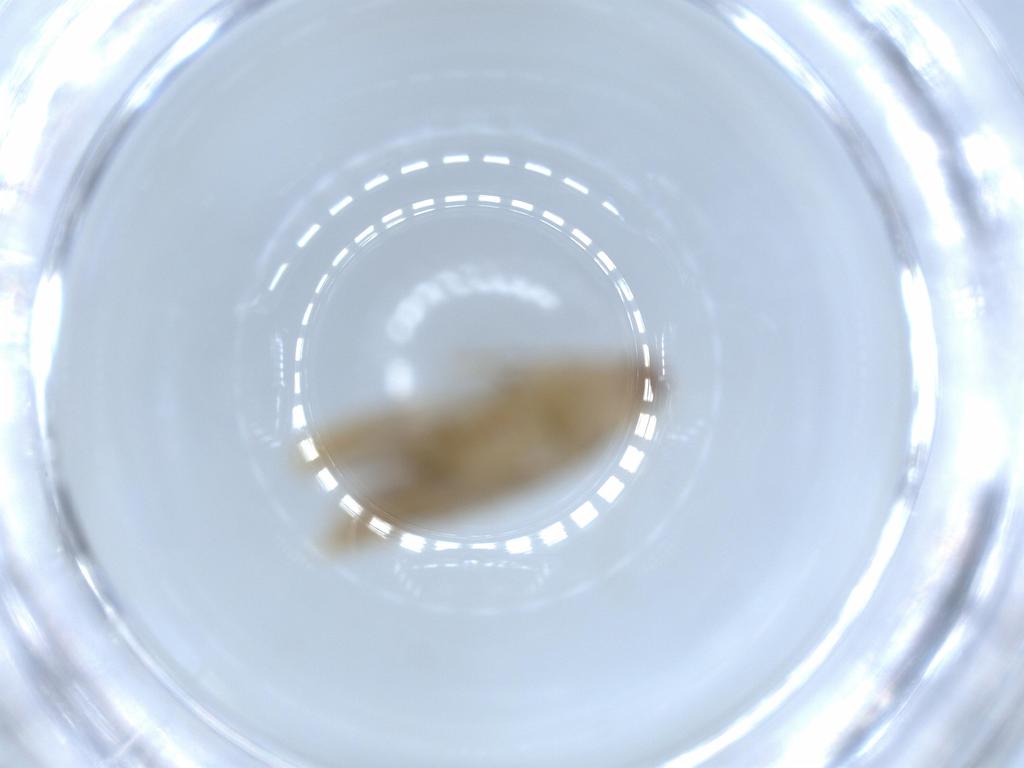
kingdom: Animalia
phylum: Arthropoda
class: Insecta
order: Lepidoptera
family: Tineidae
